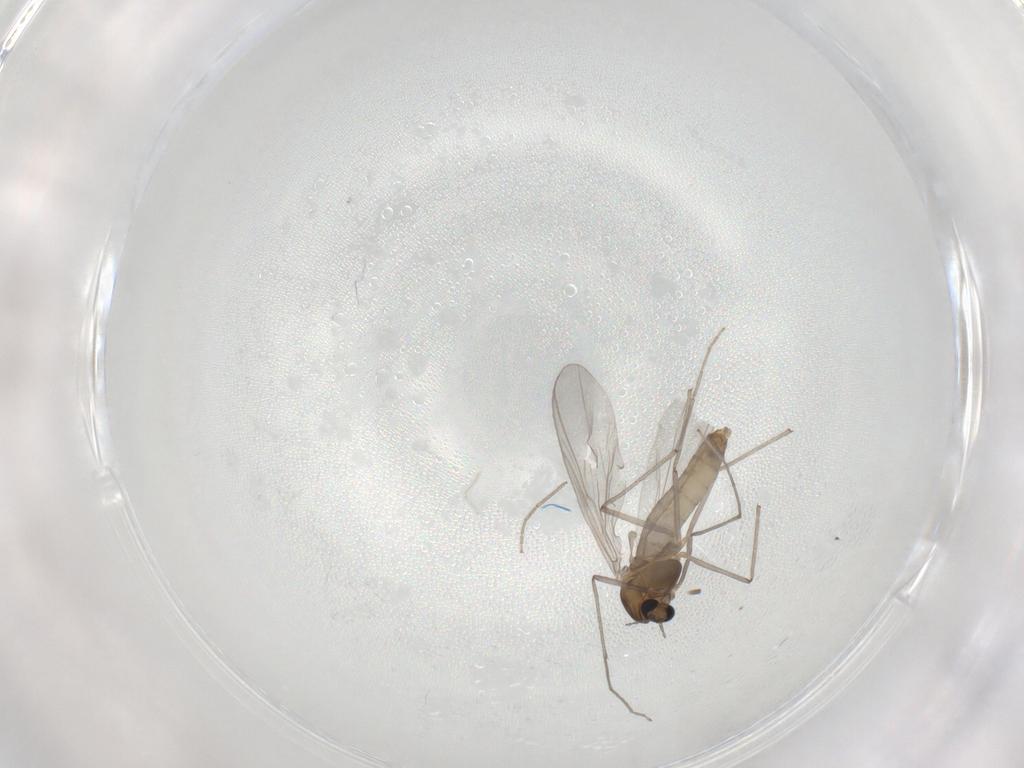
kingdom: Animalia
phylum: Arthropoda
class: Insecta
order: Diptera
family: Chironomidae
